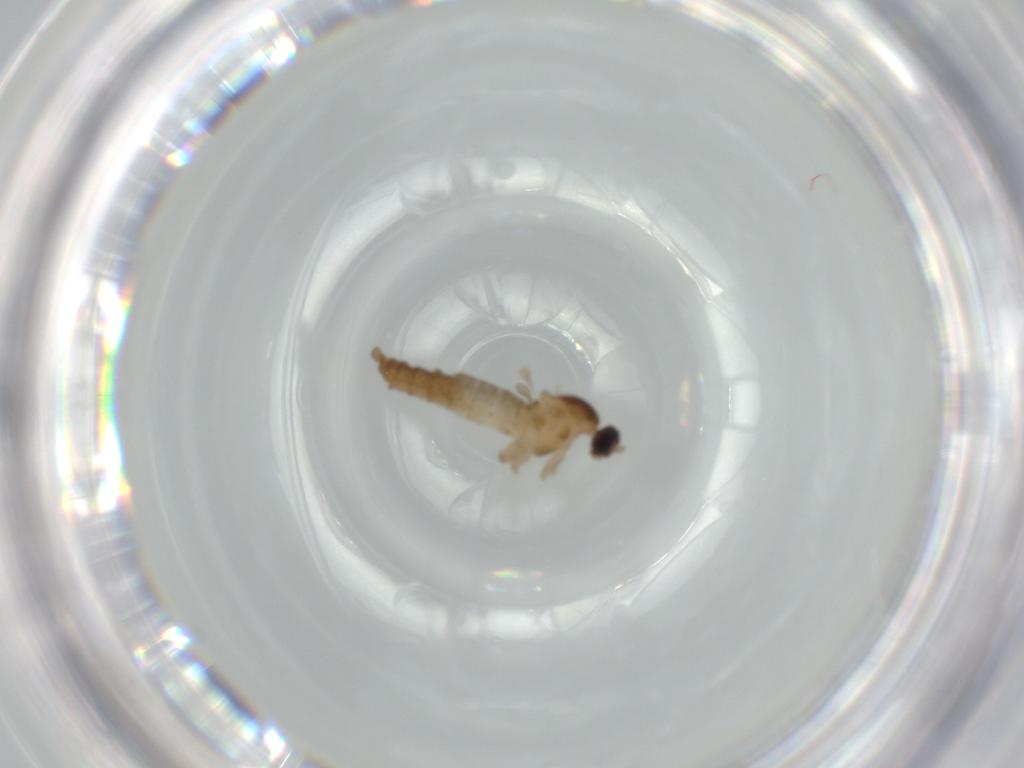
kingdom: Animalia
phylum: Arthropoda
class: Insecta
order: Diptera
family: Cecidomyiidae
